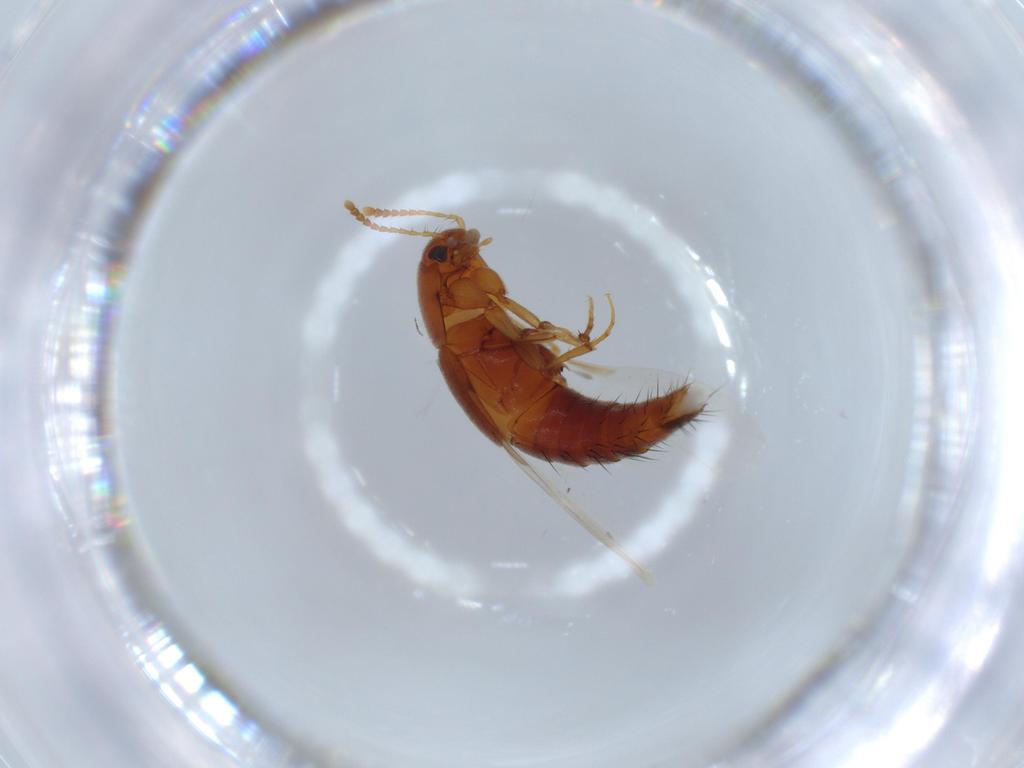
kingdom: Animalia
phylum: Arthropoda
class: Insecta
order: Coleoptera
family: Staphylinidae
